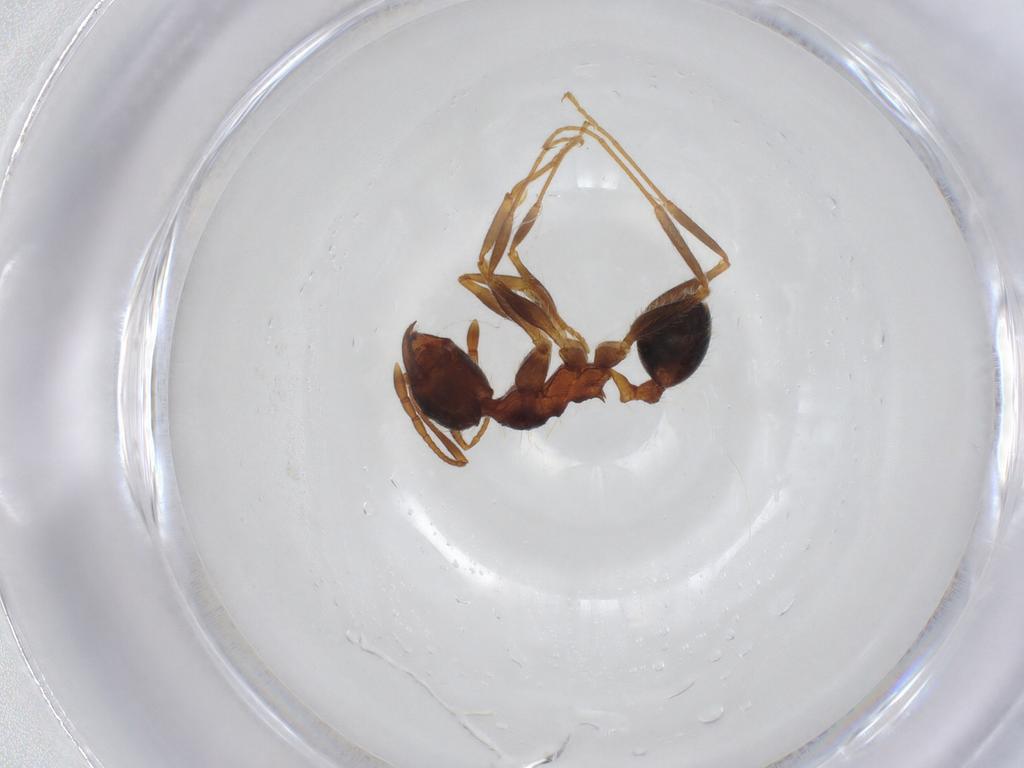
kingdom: Animalia
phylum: Arthropoda
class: Insecta
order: Hymenoptera
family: Formicidae
